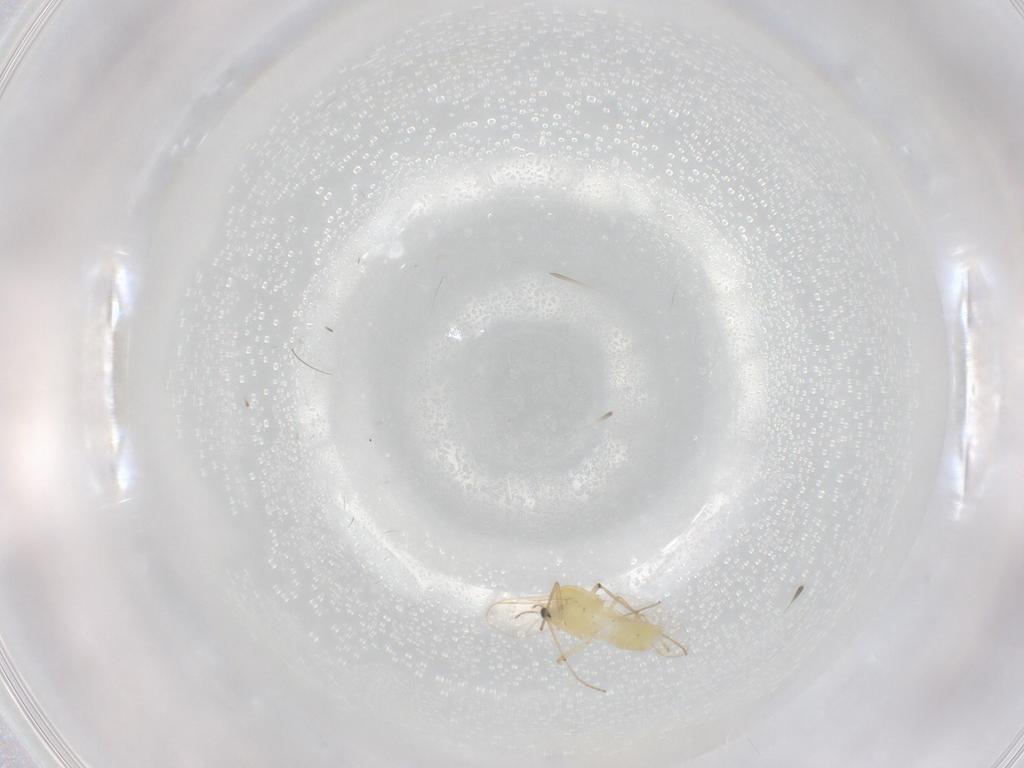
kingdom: Animalia
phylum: Arthropoda
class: Insecta
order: Diptera
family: Chironomidae
